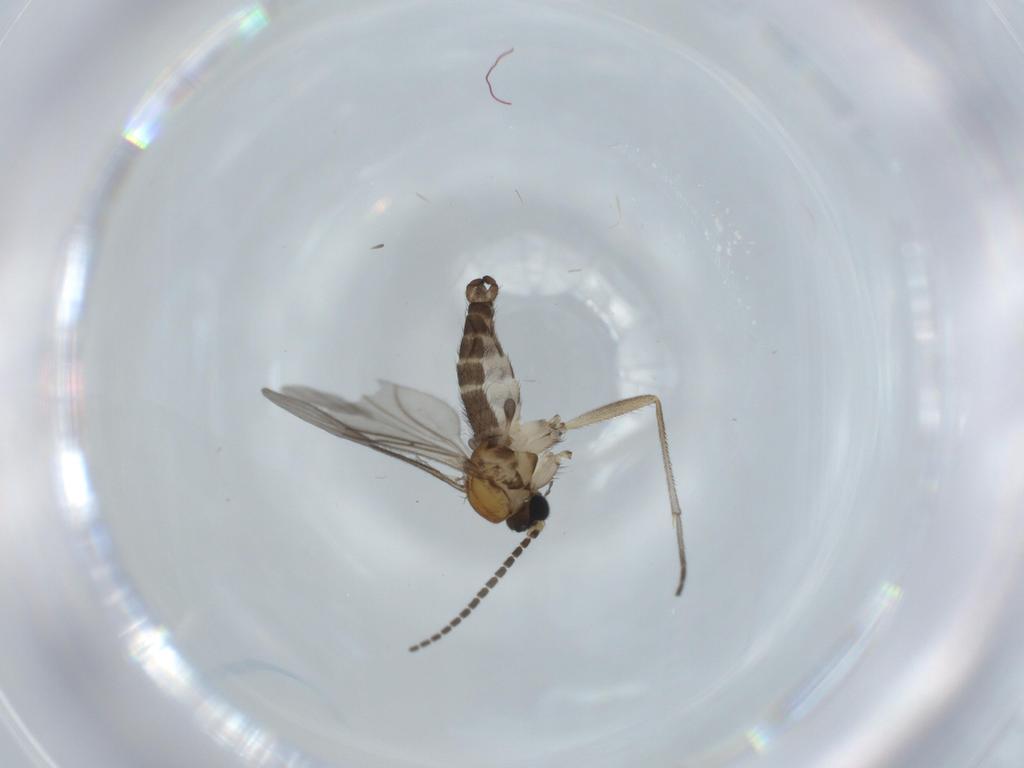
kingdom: Animalia
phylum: Arthropoda
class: Insecta
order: Diptera
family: Sciaridae
